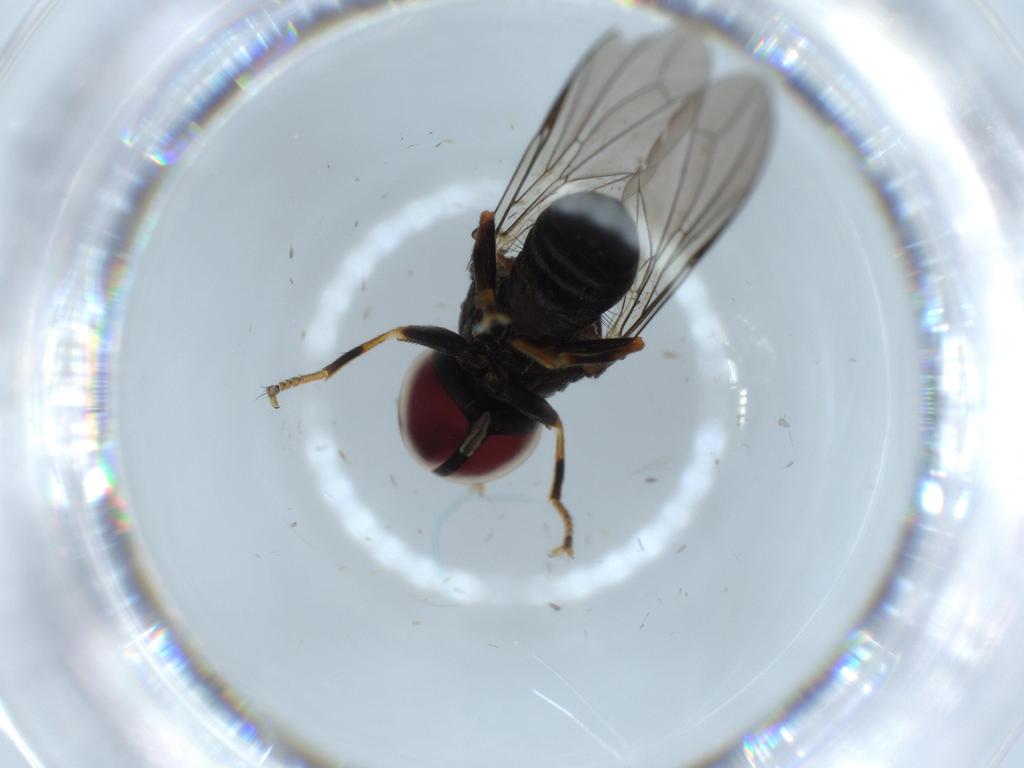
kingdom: Animalia
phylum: Arthropoda
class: Insecta
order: Diptera
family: Pipunculidae
